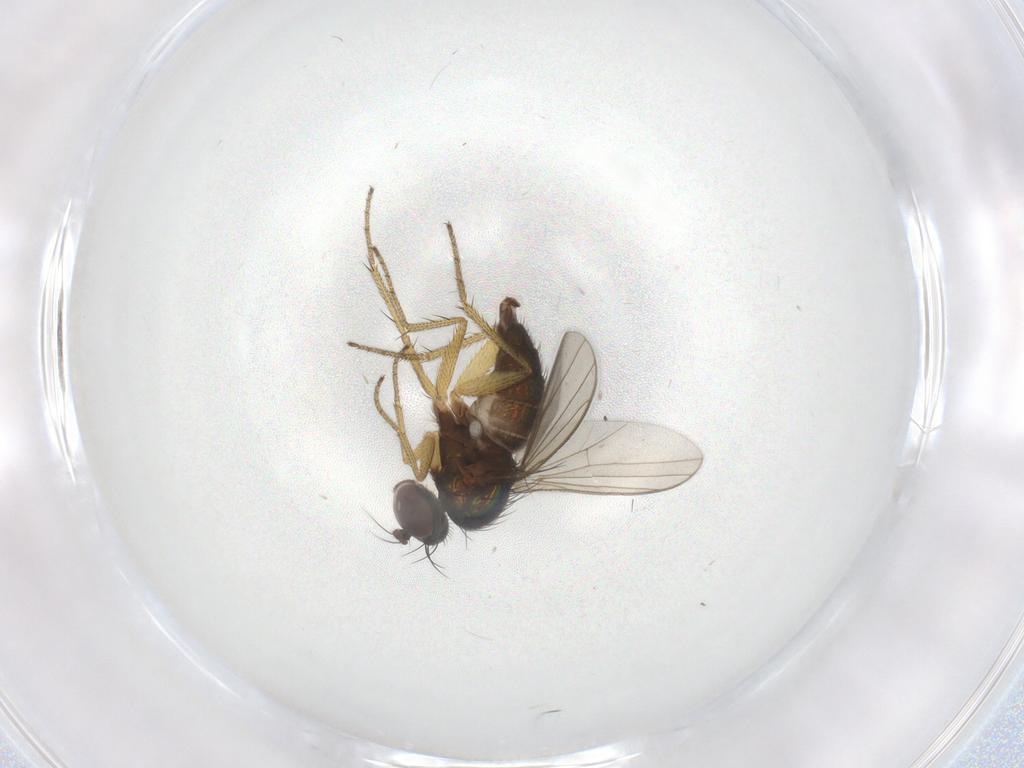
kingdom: Animalia
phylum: Arthropoda
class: Insecta
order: Diptera
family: Dolichopodidae
